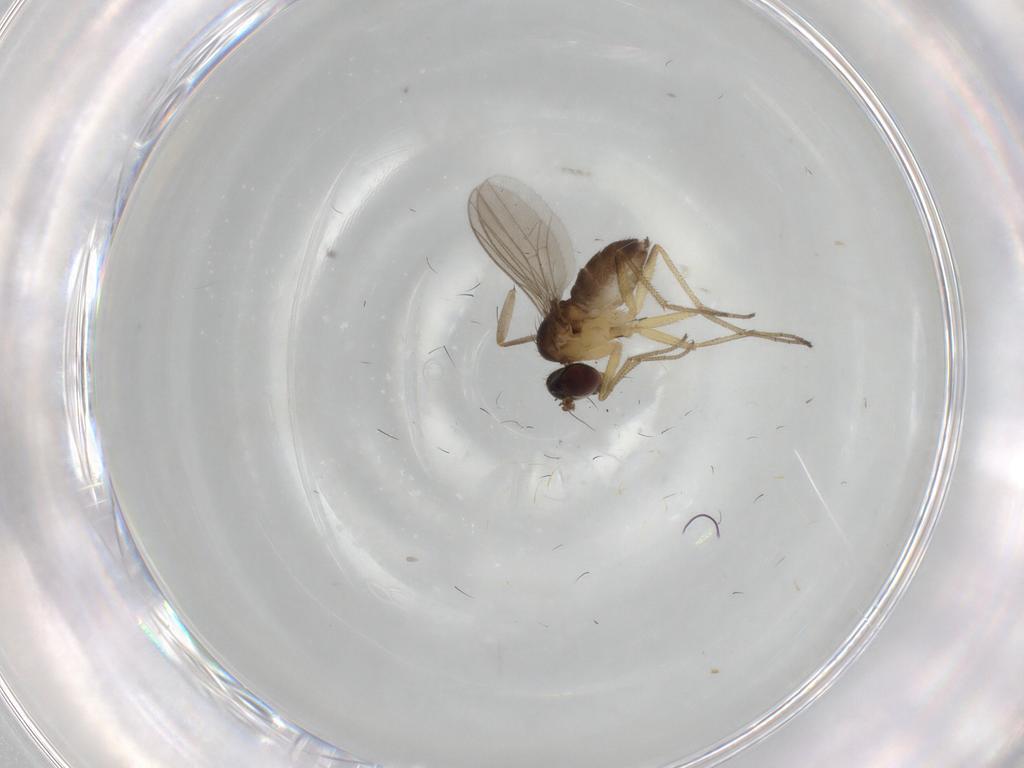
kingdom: Animalia
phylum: Arthropoda
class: Insecta
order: Diptera
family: Dolichopodidae
